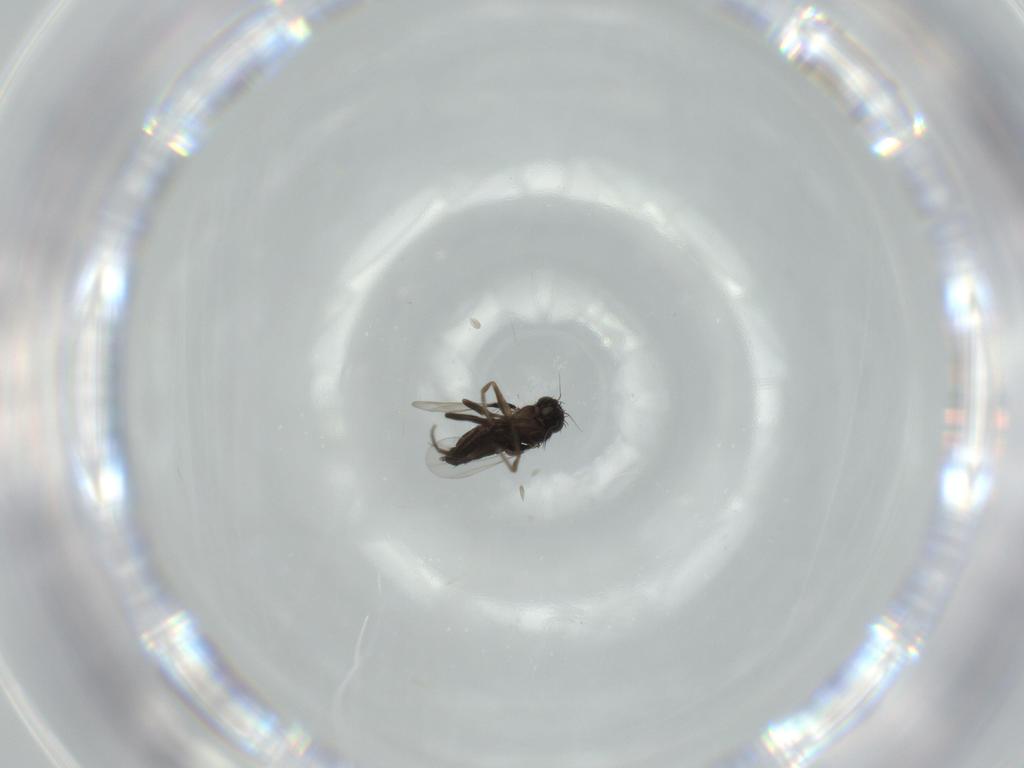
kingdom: Animalia
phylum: Arthropoda
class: Insecta
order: Diptera
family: Phoridae
